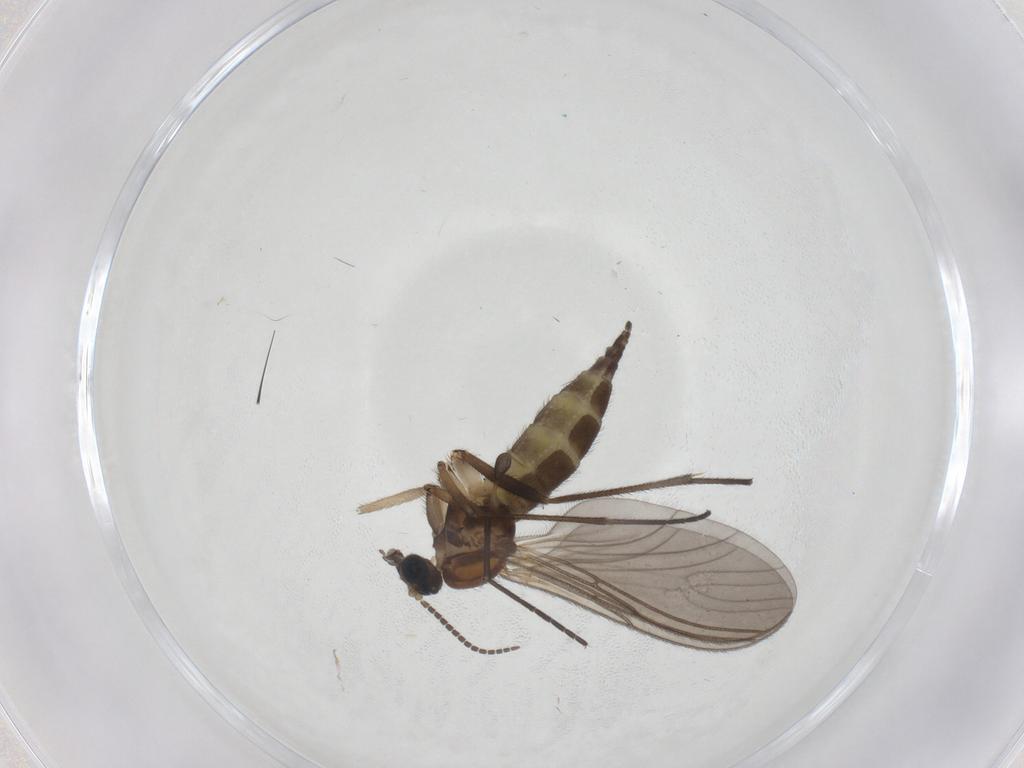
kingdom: Animalia
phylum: Arthropoda
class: Insecta
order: Diptera
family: Sciaridae
